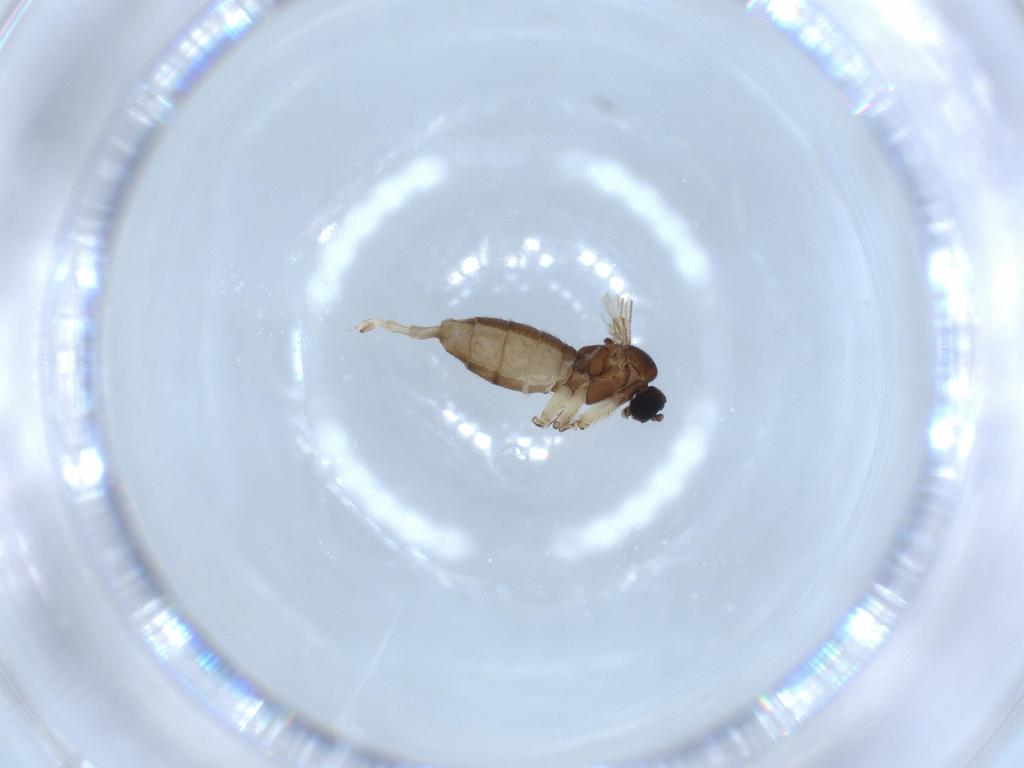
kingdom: Animalia
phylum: Arthropoda
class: Insecta
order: Diptera
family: Sciaridae
